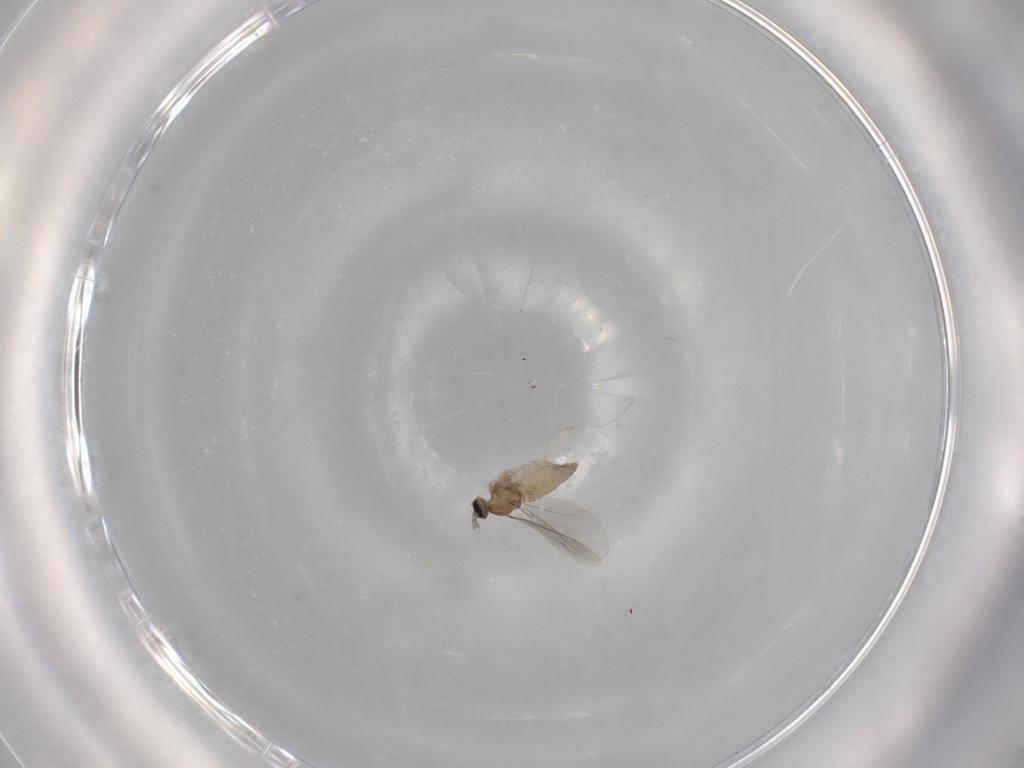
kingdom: Animalia
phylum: Arthropoda
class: Insecta
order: Diptera
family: Cecidomyiidae
